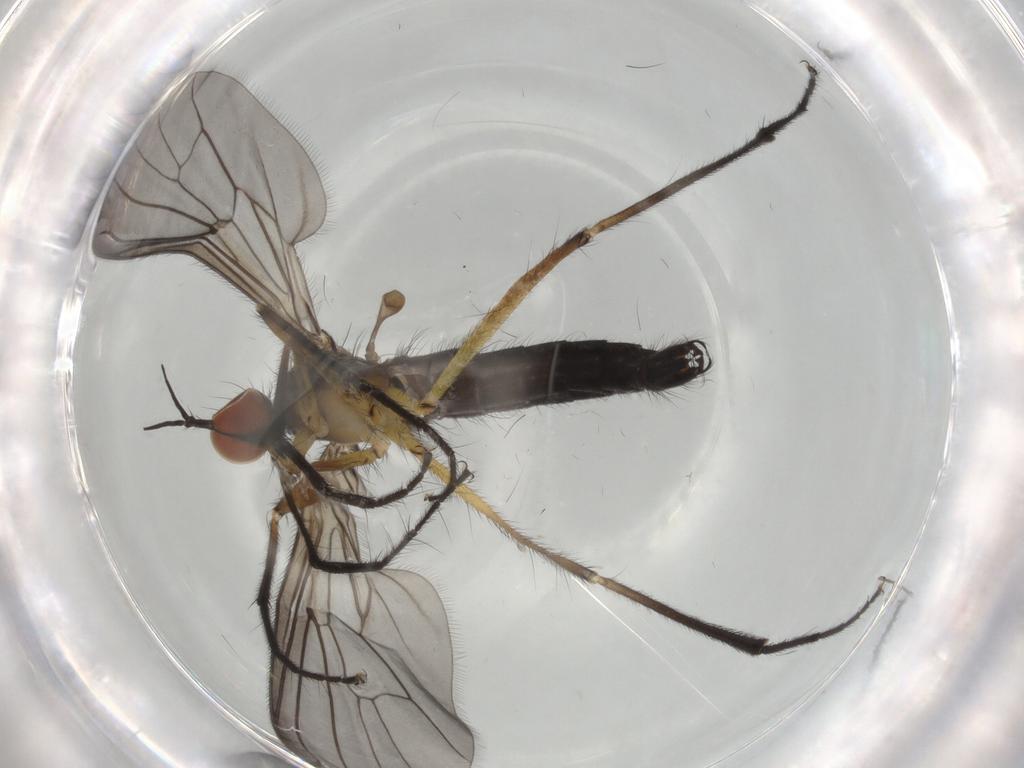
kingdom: Animalia
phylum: Arthropoda
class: Insecta
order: Diptera
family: Empididae
